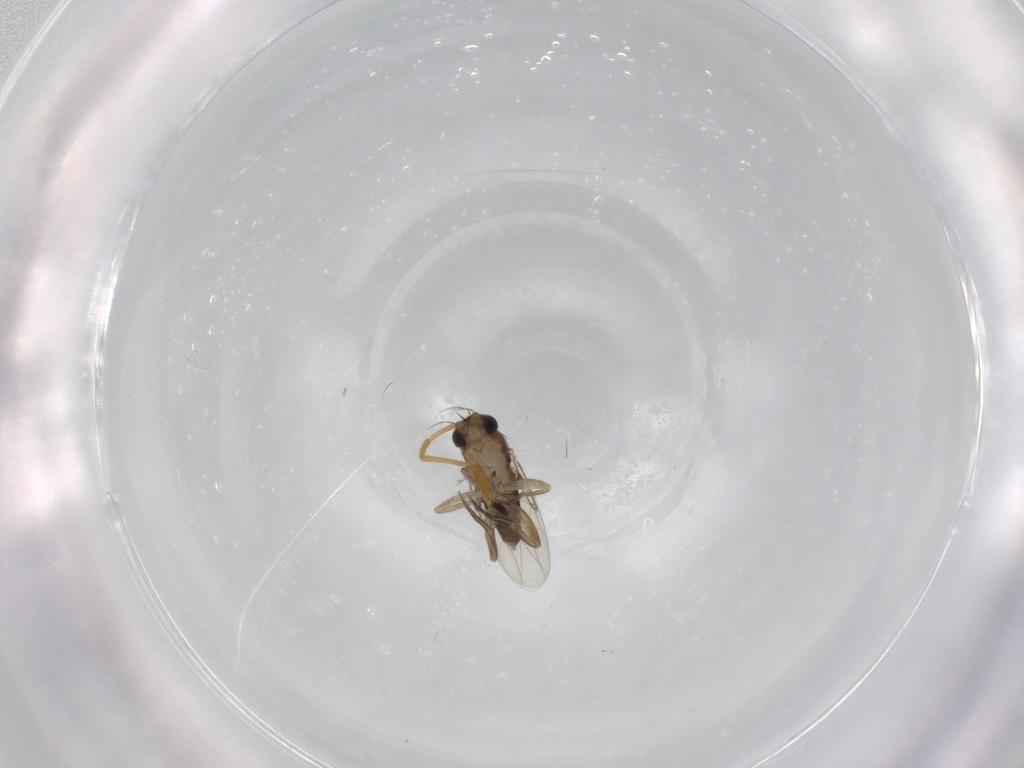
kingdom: Animalia
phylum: Arthropoda
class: Insecta
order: Diptera
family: Phoridae
